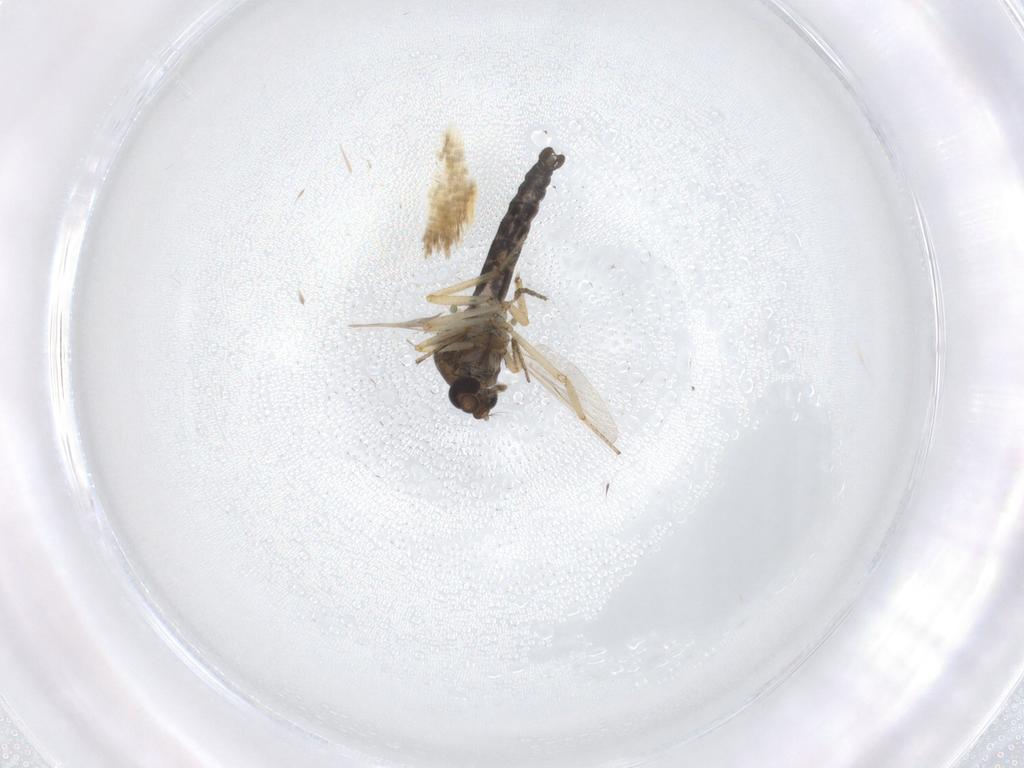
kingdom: Animalia
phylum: Arthropoda
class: Insecta
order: Diptera
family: Ceratopogonidae
